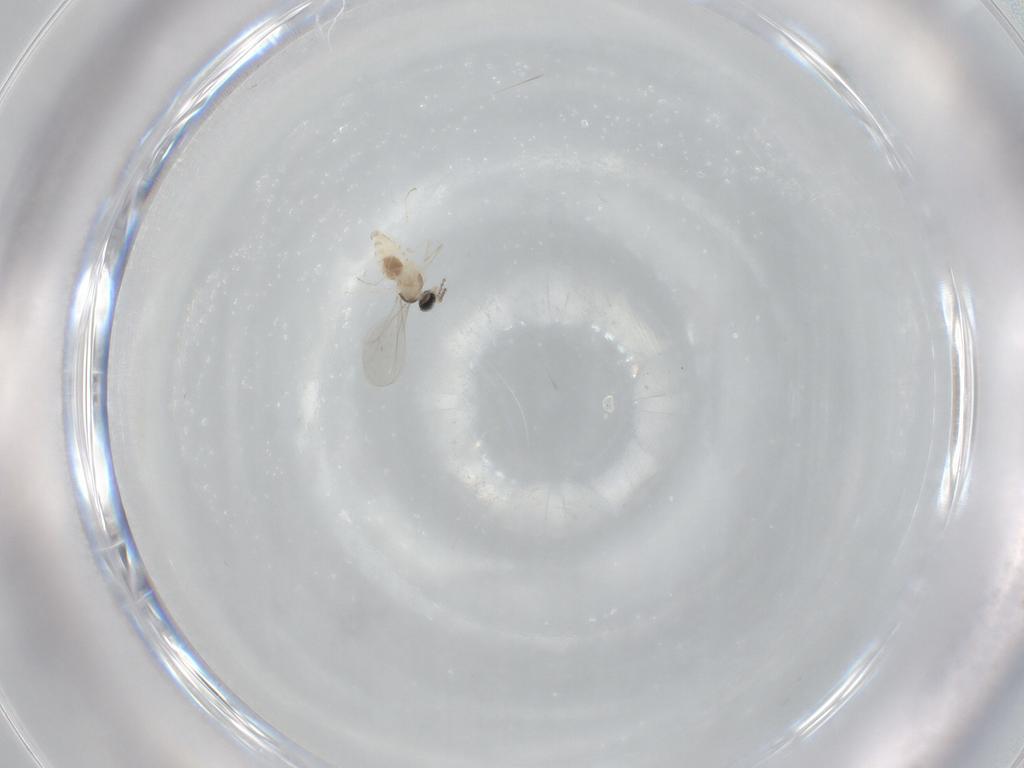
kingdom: Animalia
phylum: Arthropoda
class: Insecta
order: Diptera
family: Cecidomyiidae
